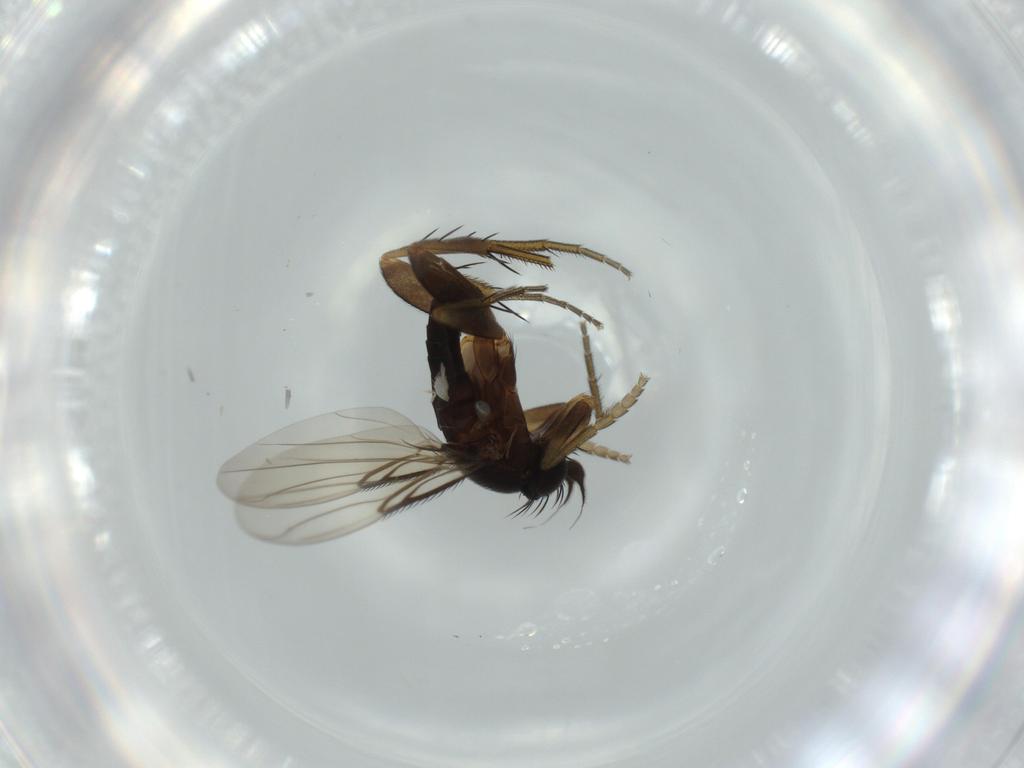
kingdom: Animalia
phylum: Arthropoda
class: Insecta
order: Diptera
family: Phoridae
